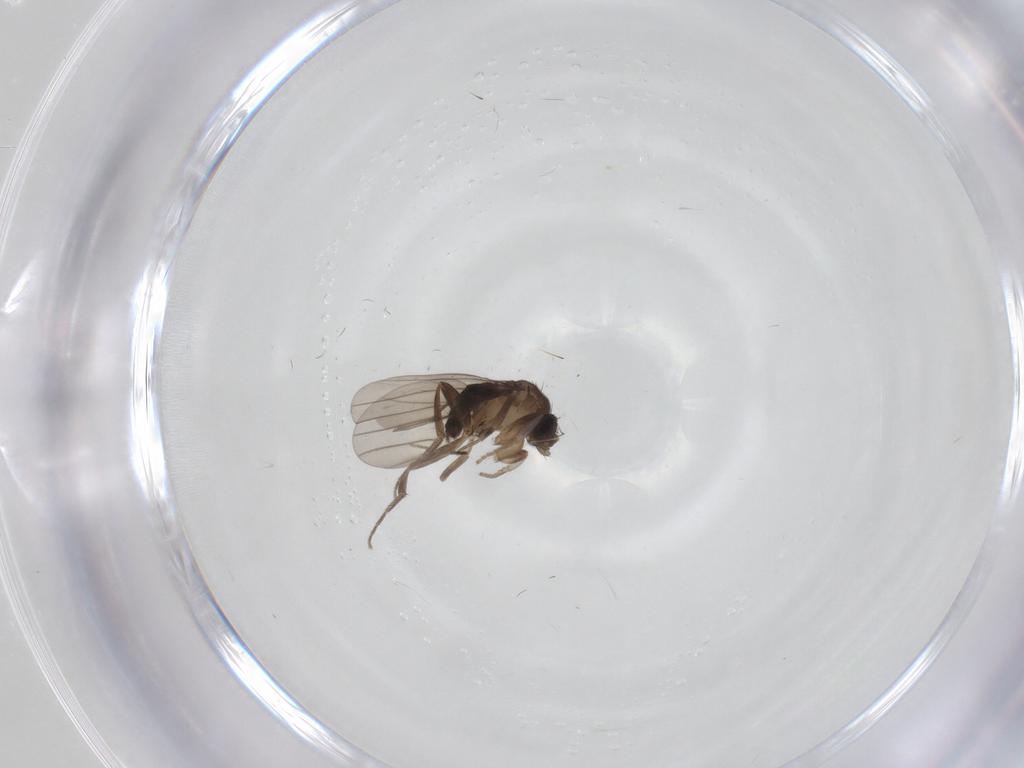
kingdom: Animalia
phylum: Arthropoda
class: Insecta
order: Diptera
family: Phoridae
